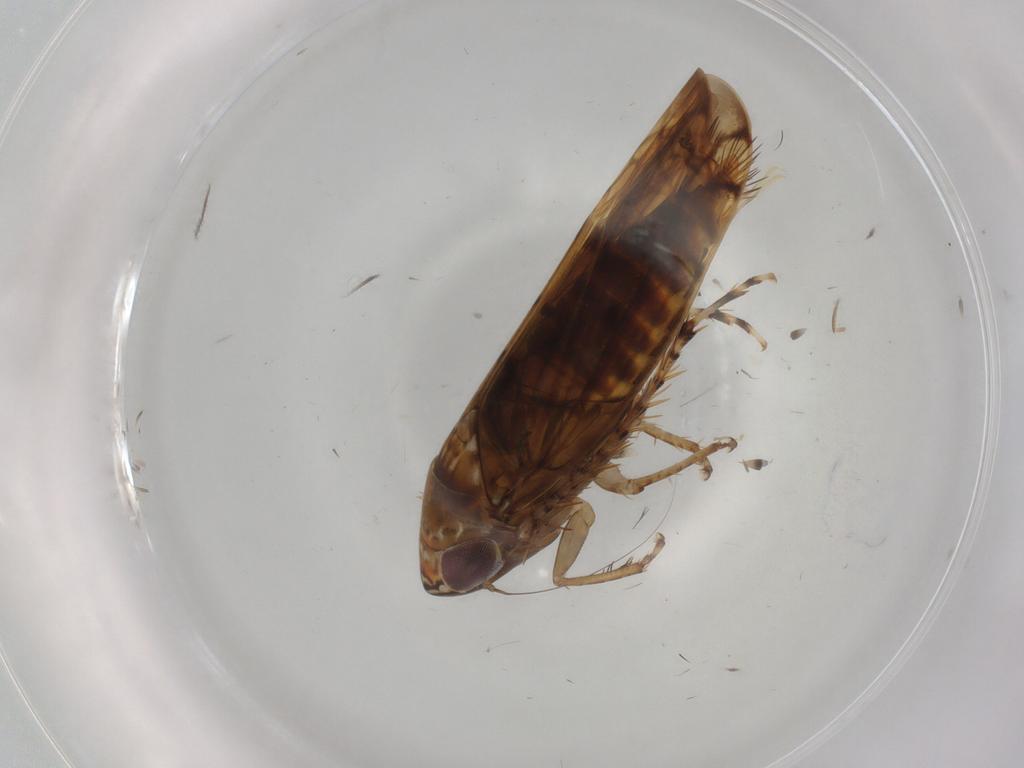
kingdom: Animalia
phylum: Arthropoda
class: Insecta
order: Hemiptera
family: Cicadellidae
